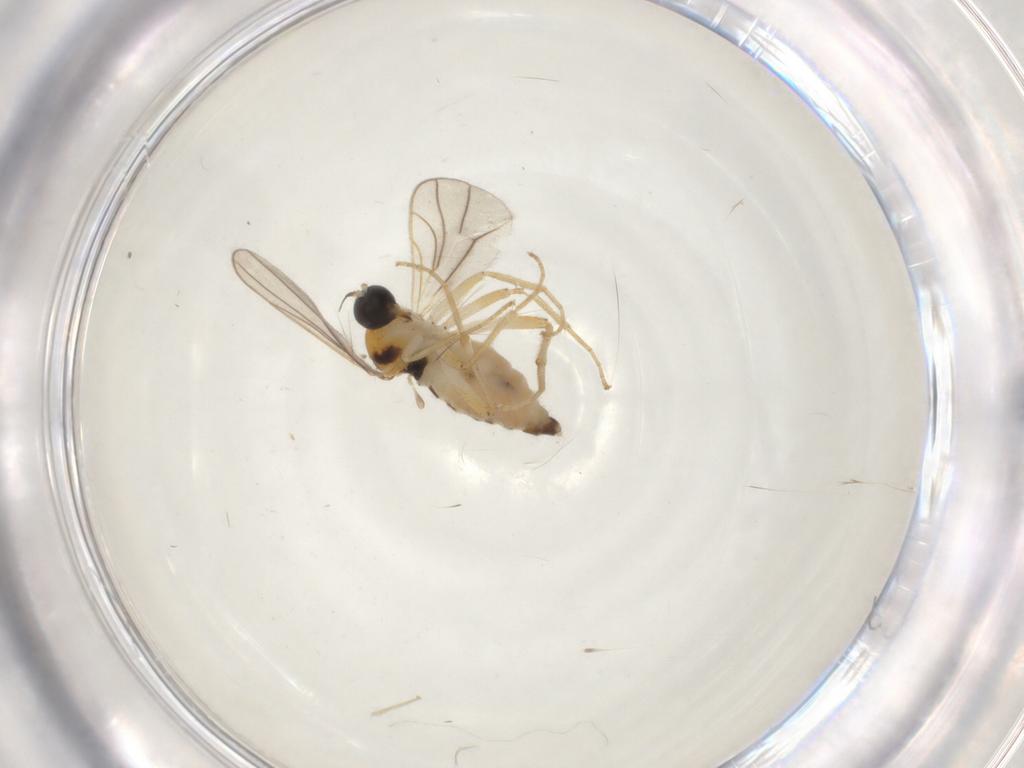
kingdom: Animalia
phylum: Arthropoda
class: Insecta
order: Diptera
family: Hybotidae
